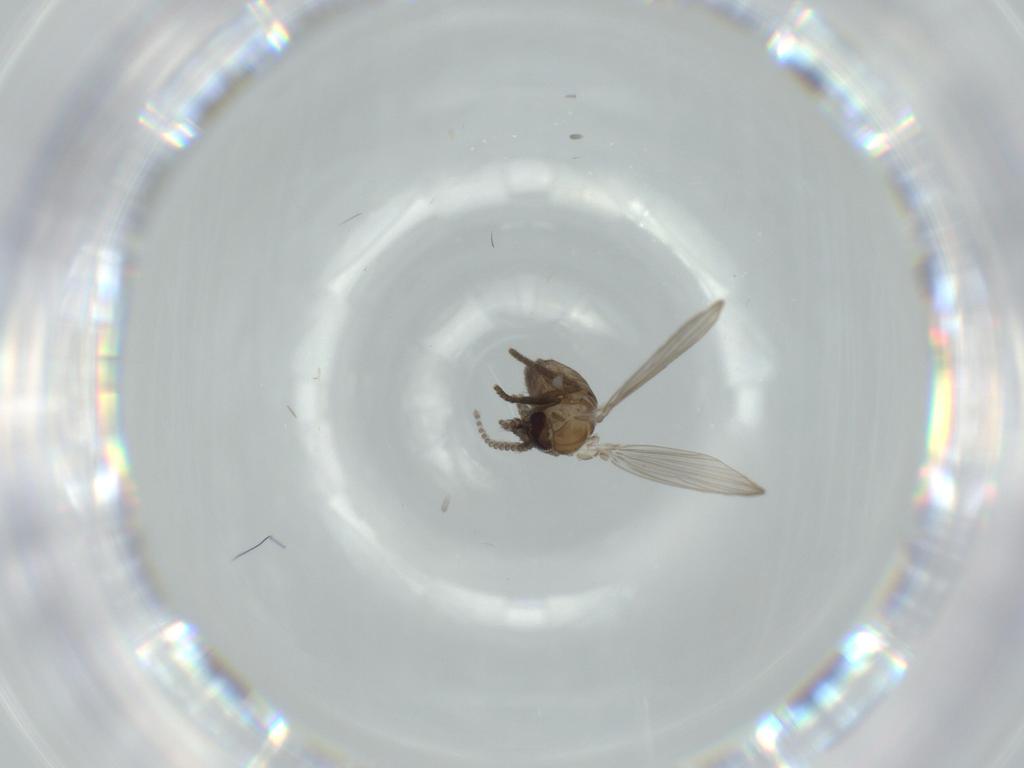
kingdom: Animalia
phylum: Arthropoda
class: Insecta
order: Diptera
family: Psychodidae
